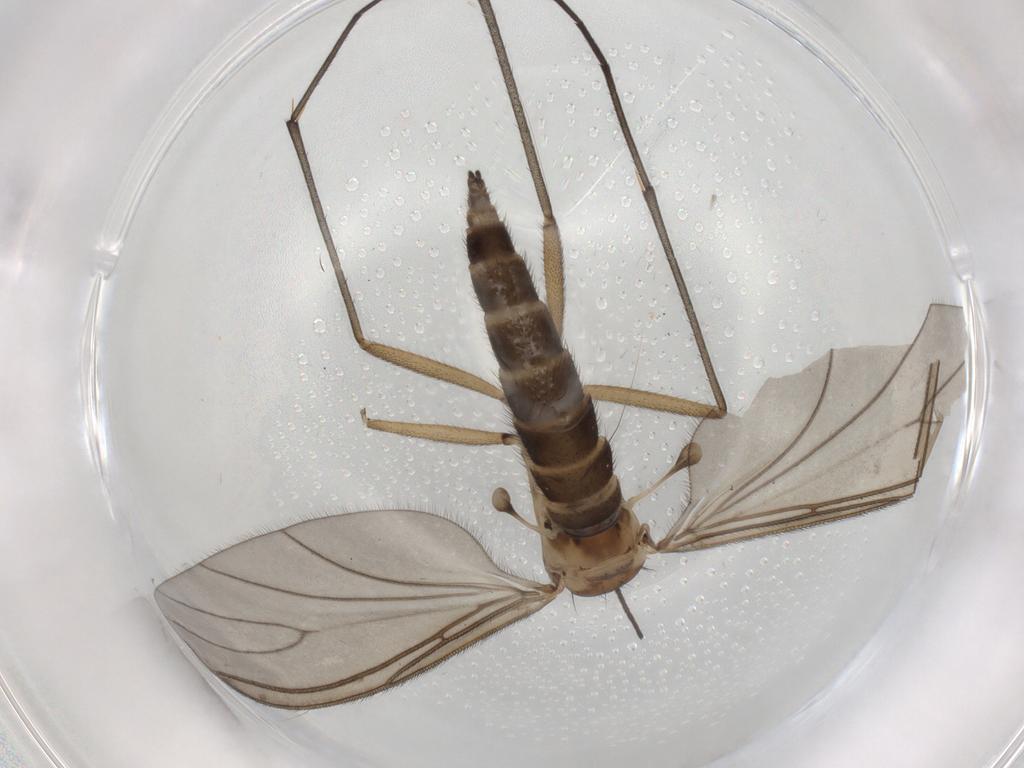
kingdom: Animalia
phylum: Arthropoda
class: Insecta
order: Diptera
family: Sciaridae
